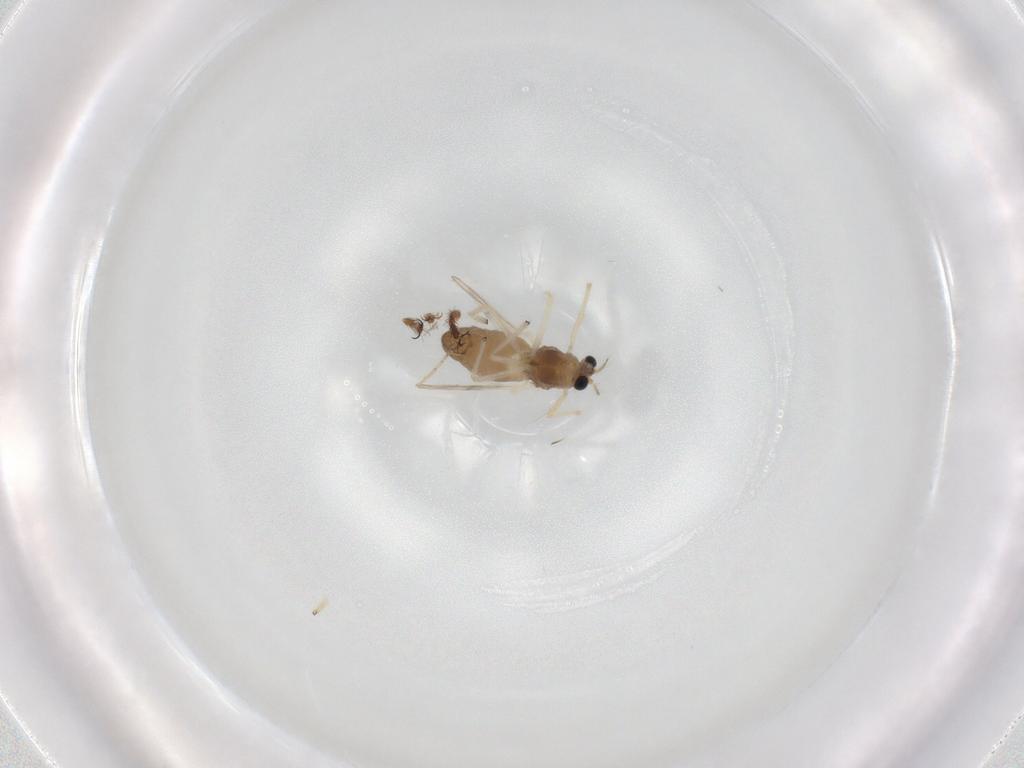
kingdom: Animalia
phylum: Arthropoda
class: Insecta
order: Diptera
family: Chironomidae
